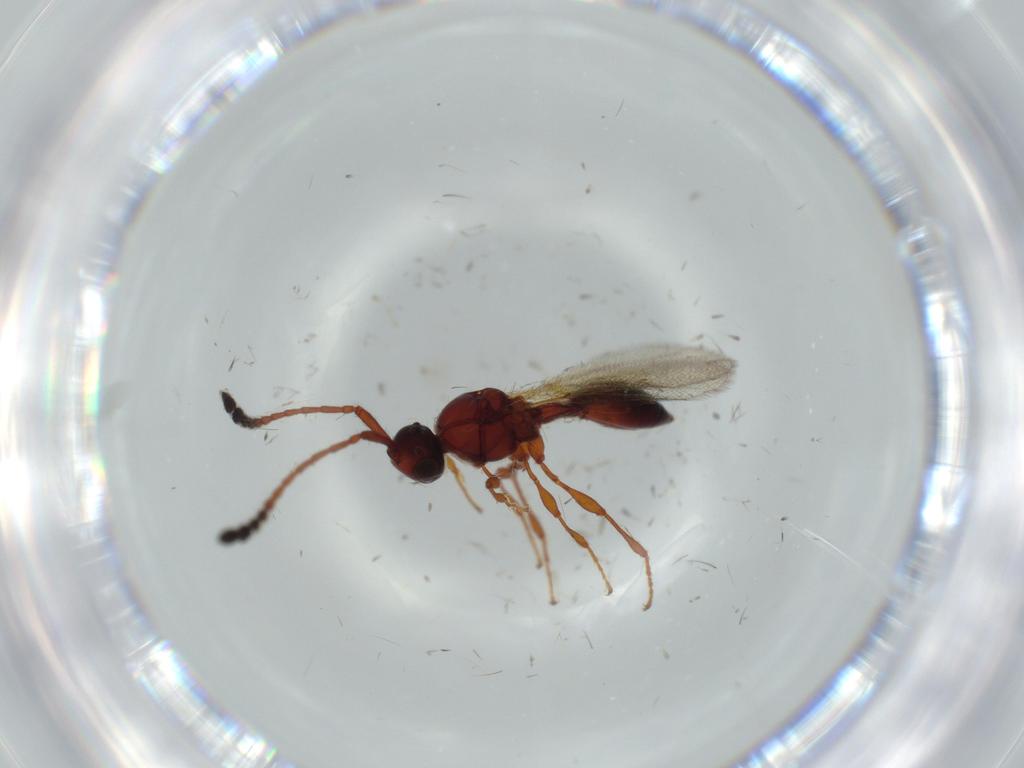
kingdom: Animalia
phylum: Arthropoda
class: Insecta
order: Hymenoptera
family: Diapriidae
